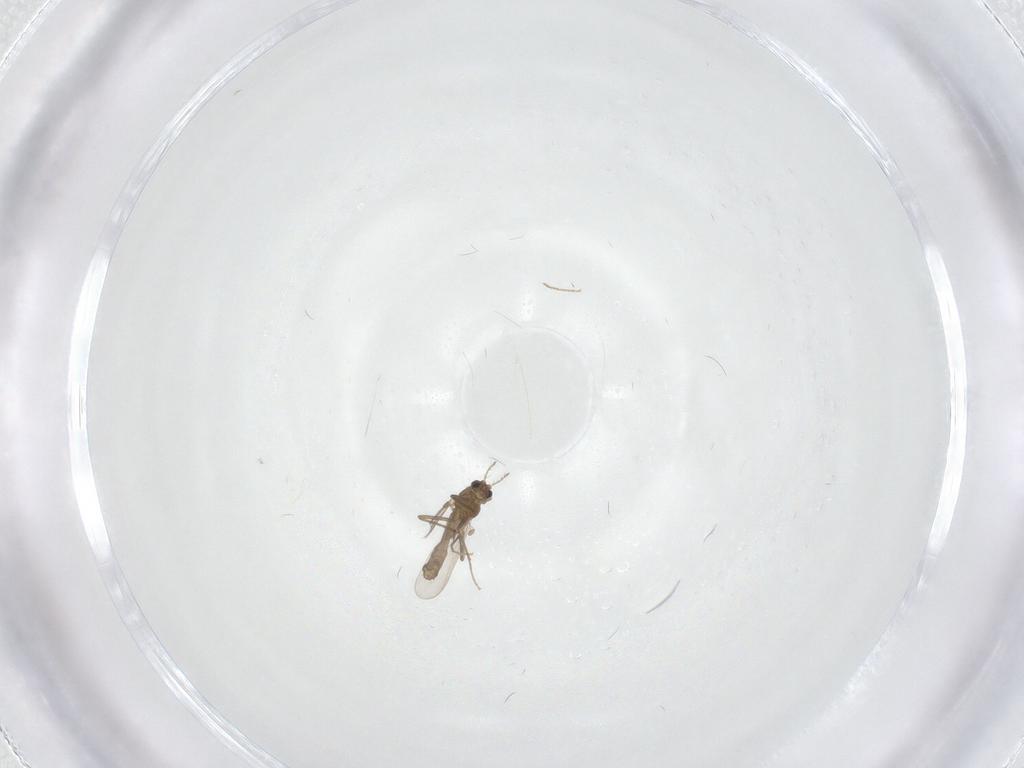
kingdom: Animalia
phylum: Arthropoda
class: Insecta
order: Diptera
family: Chironomidae
